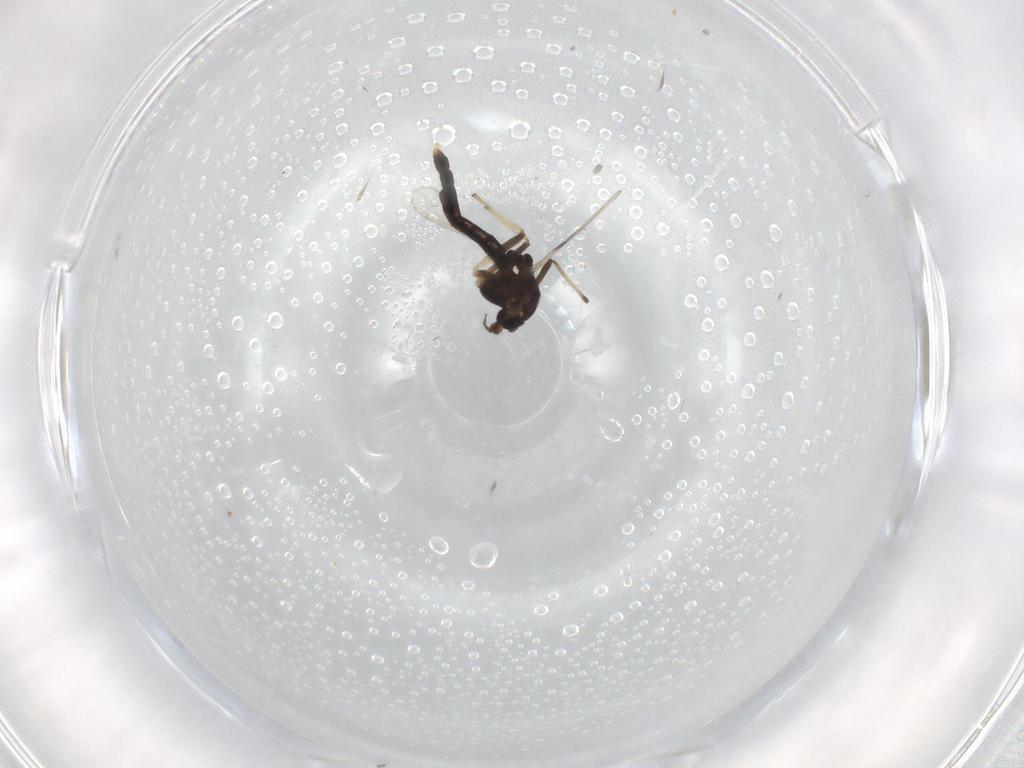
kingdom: Animalia
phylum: Arthropoda
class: Insecta
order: Diptera
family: Chironomidae
